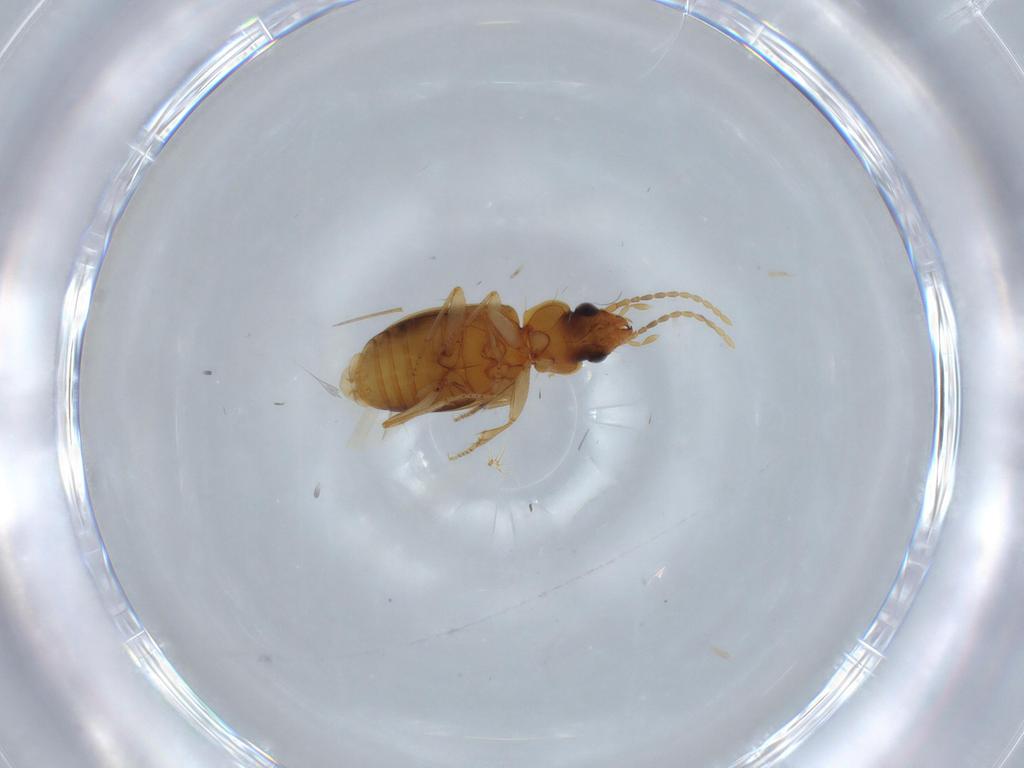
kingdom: Animalia
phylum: Arthropoda
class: Insecta
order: Coleoptera
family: Carabidae
